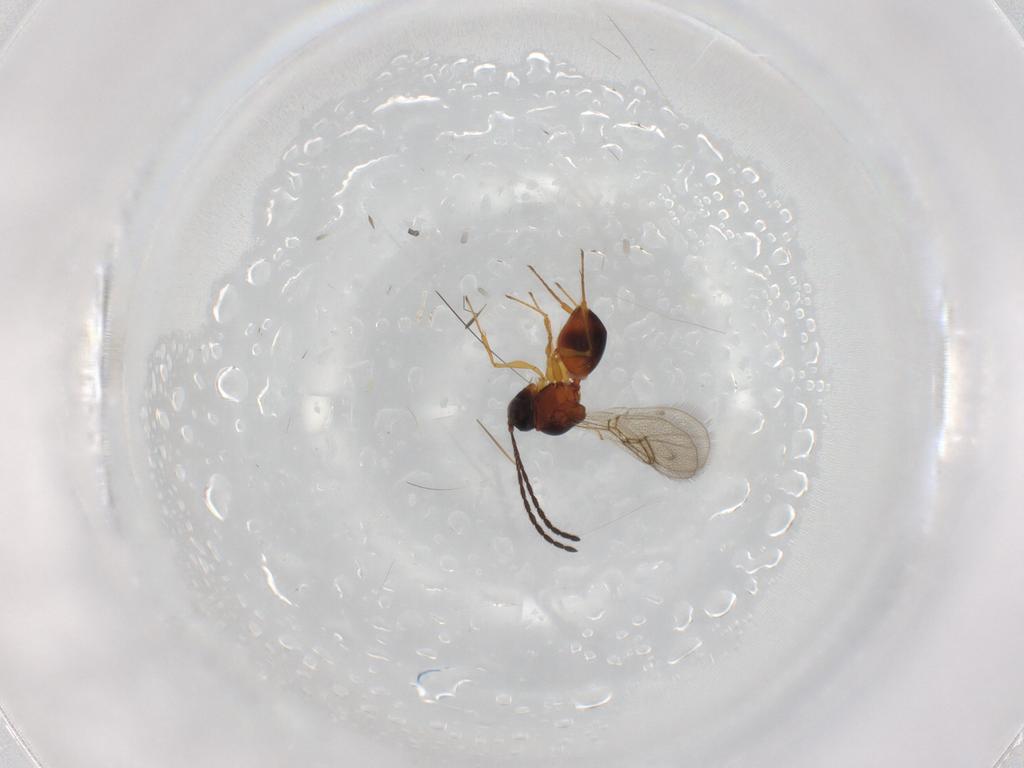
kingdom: Animalia
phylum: Arthropoda
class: Insecta
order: Hymenoptera
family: Figitidae
